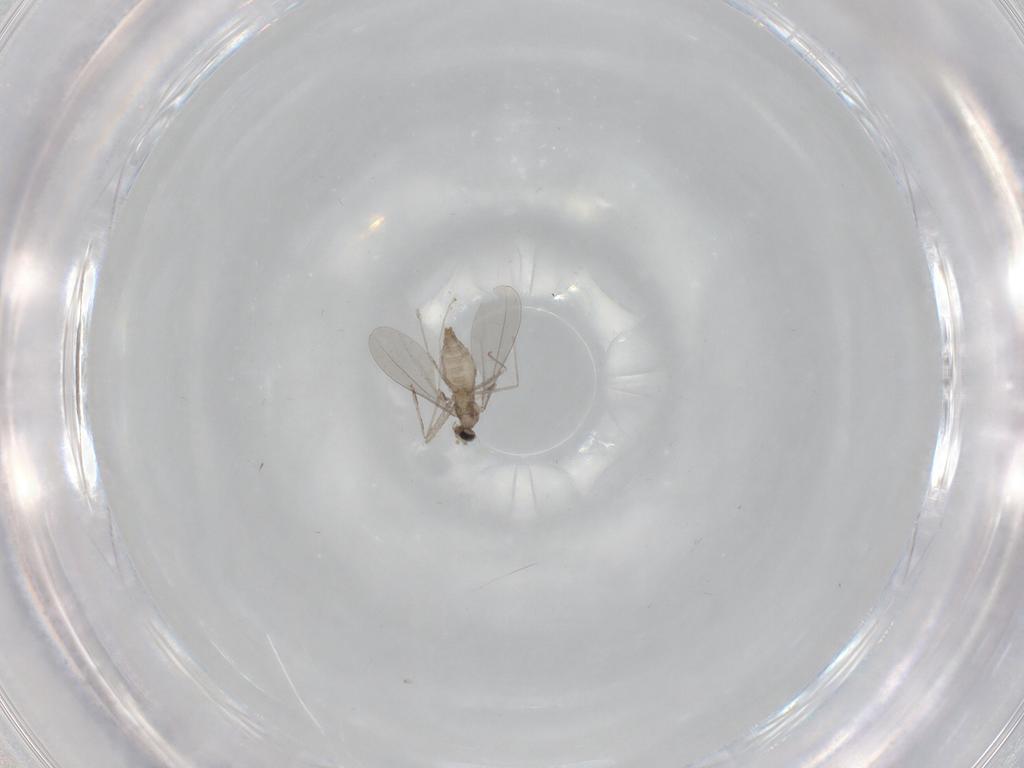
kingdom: Animalia
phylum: Arthropoda
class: Insecta
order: Diptera
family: Cecidomyiidae
